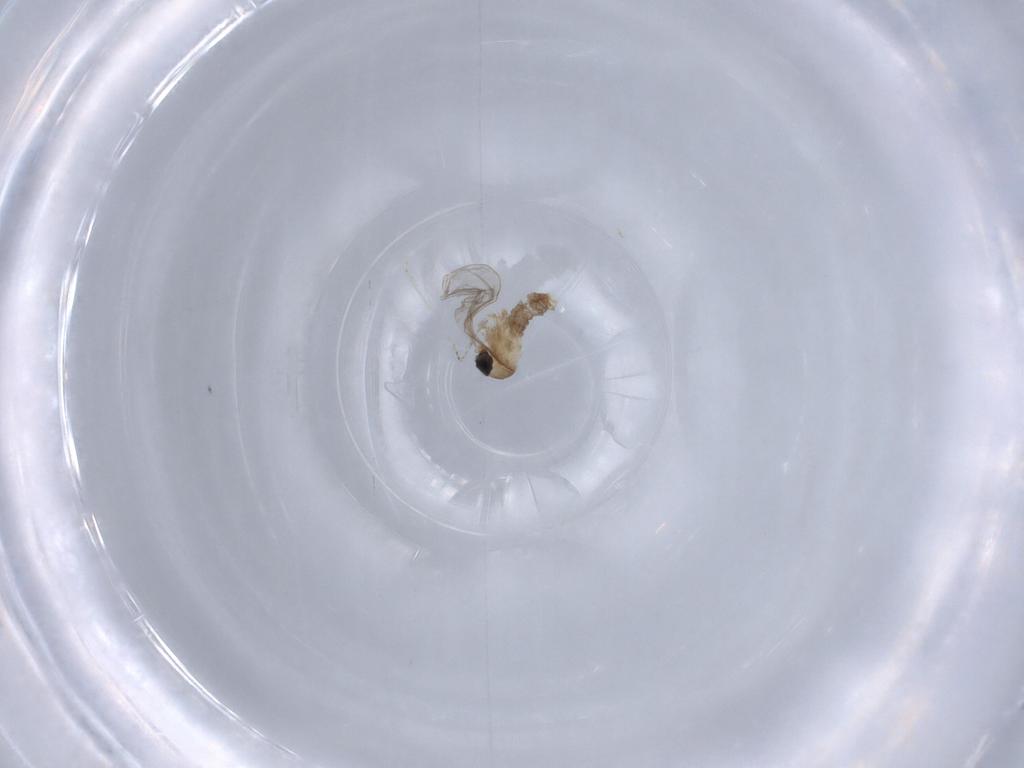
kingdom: Animalia
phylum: Arthropoda
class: Insecta
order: Diptera
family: Cecidomyiidae
